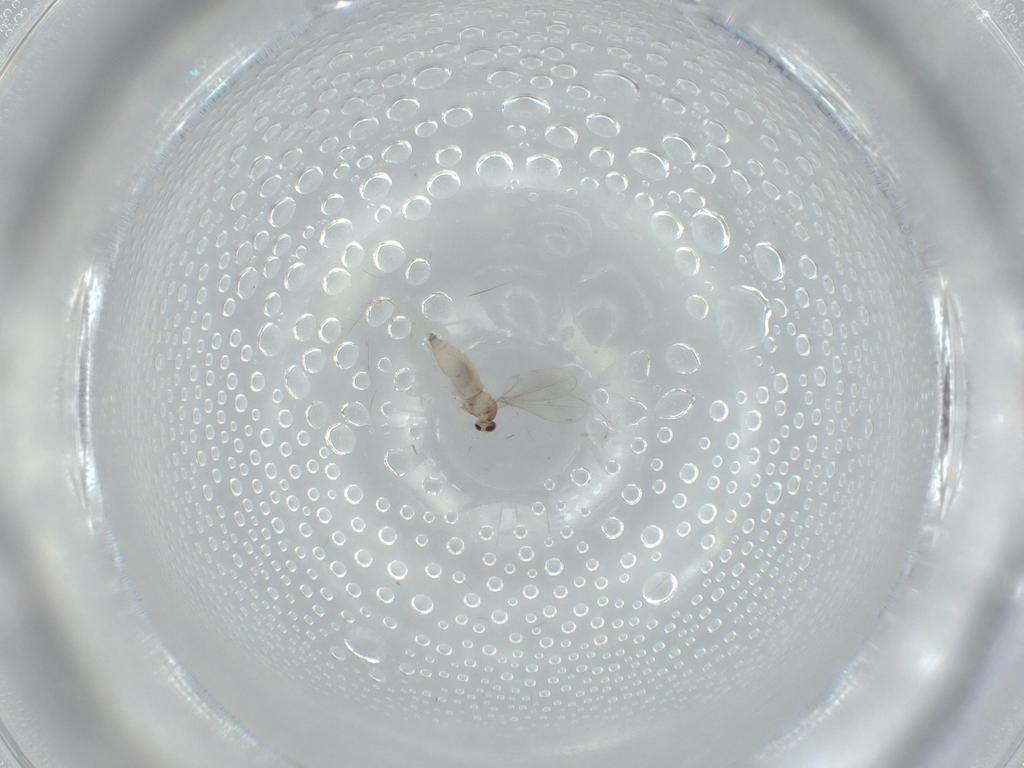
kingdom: Animalia
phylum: Arthropoda
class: Insecta
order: Diptera
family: Cecidomyiidae
